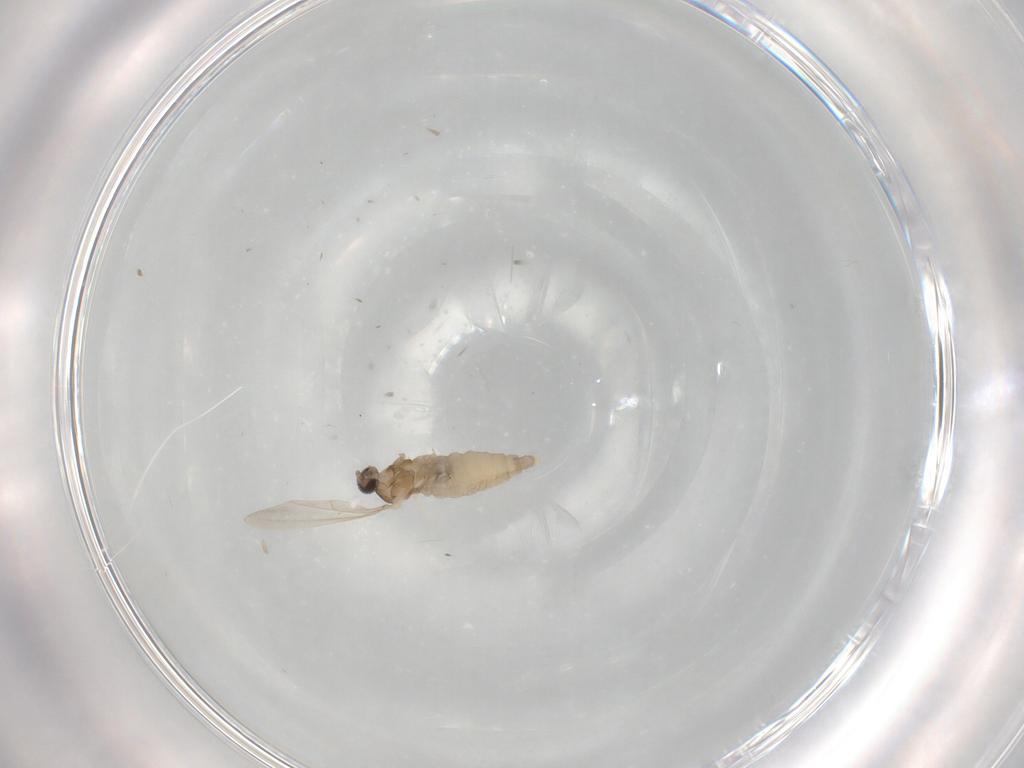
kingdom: Animalia
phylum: Arthropoda
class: Insecta
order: Diptera
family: Cecidomyiidae
